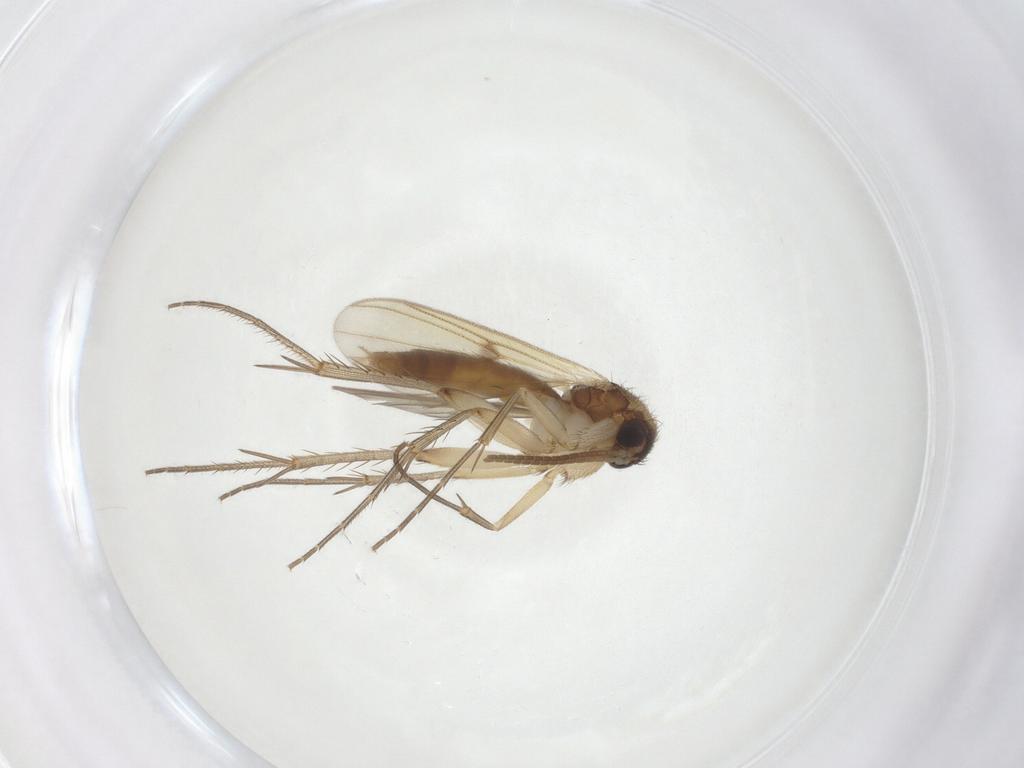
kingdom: Animalia
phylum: Arthropoda
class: Insecta
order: Diptera
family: Mycetophilidae
